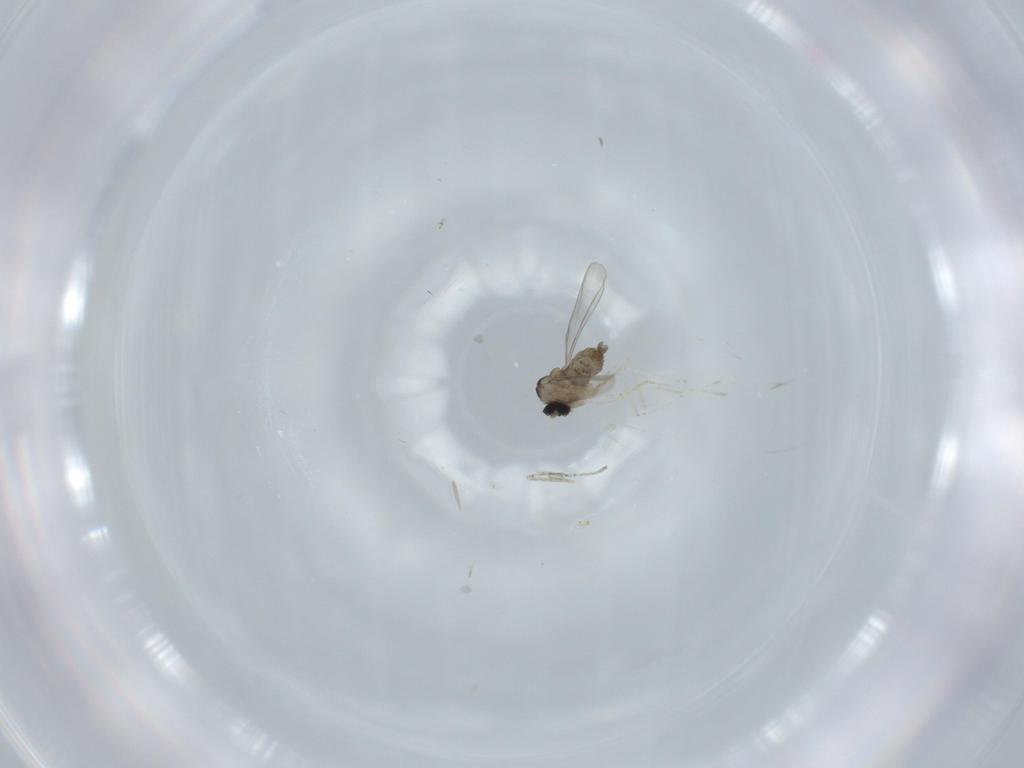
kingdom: Animalia
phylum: Arthropoda
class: Insecta
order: Diptera
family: Chironomidae
